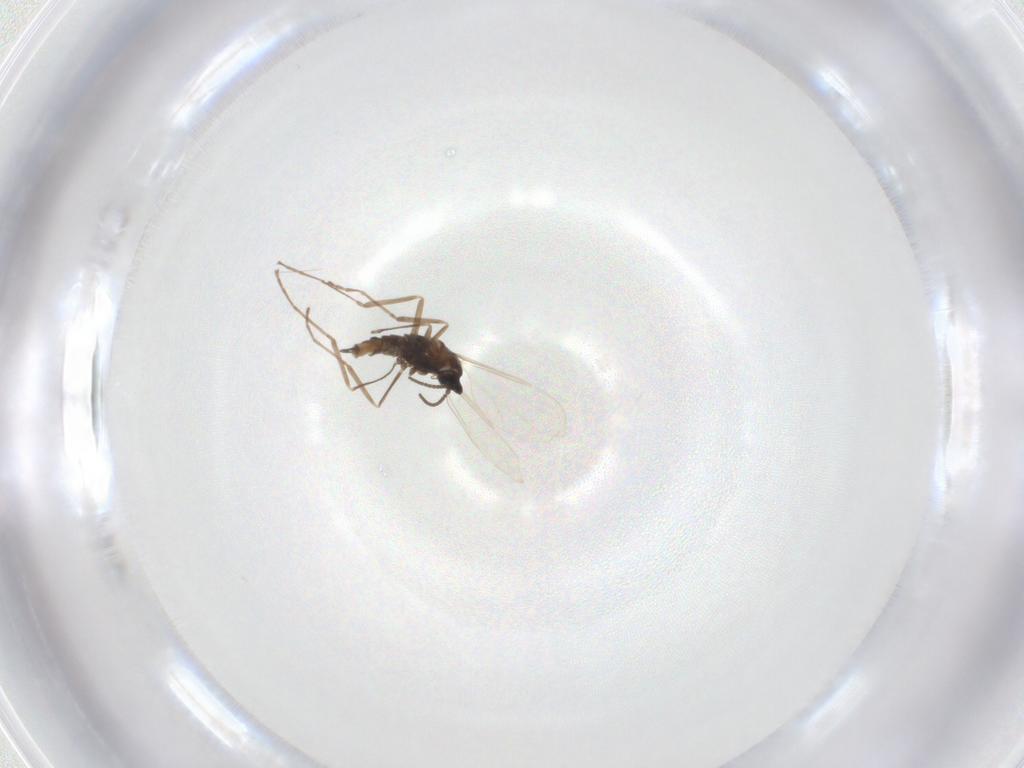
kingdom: Animalia
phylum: Arthropoda
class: Insecta
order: Diptera
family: Cecidomyiidae
